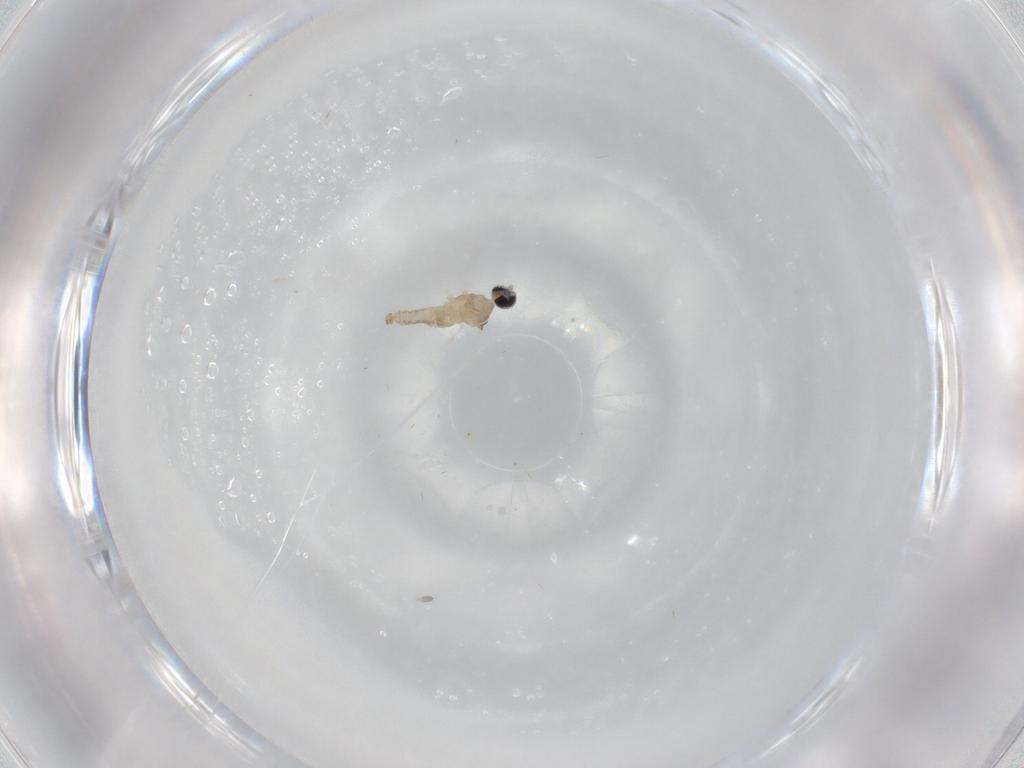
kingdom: Animalia
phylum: Arthropoda
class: Insecta
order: Diptera
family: Cecidomyiidae
